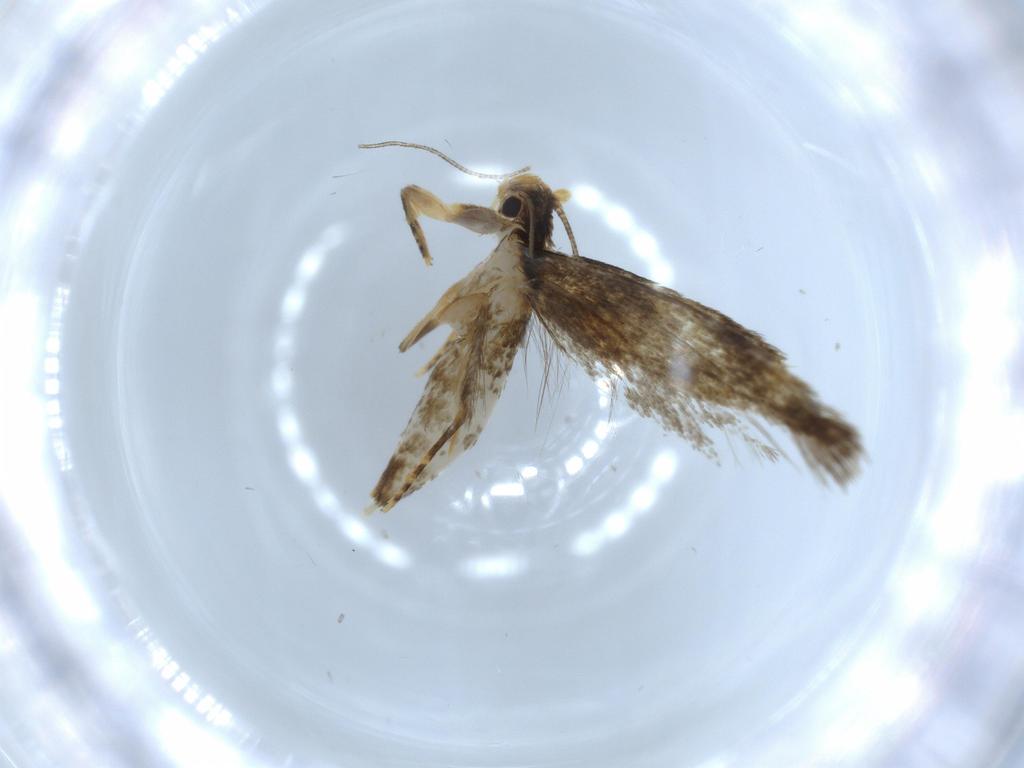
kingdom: Animalia
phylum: Arthropoda
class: Insecta
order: Lepidoptera
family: Tineidae
